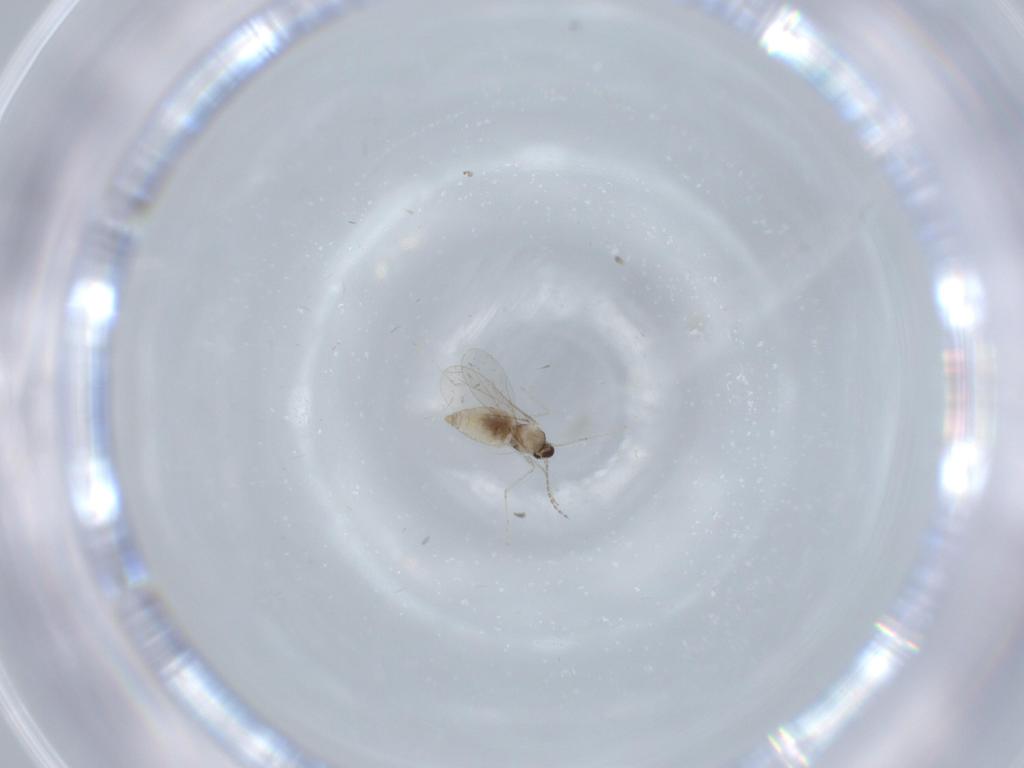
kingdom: Animalia
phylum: Arthropoda
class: Insecta
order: Diptera
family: Cecidomyiidae
